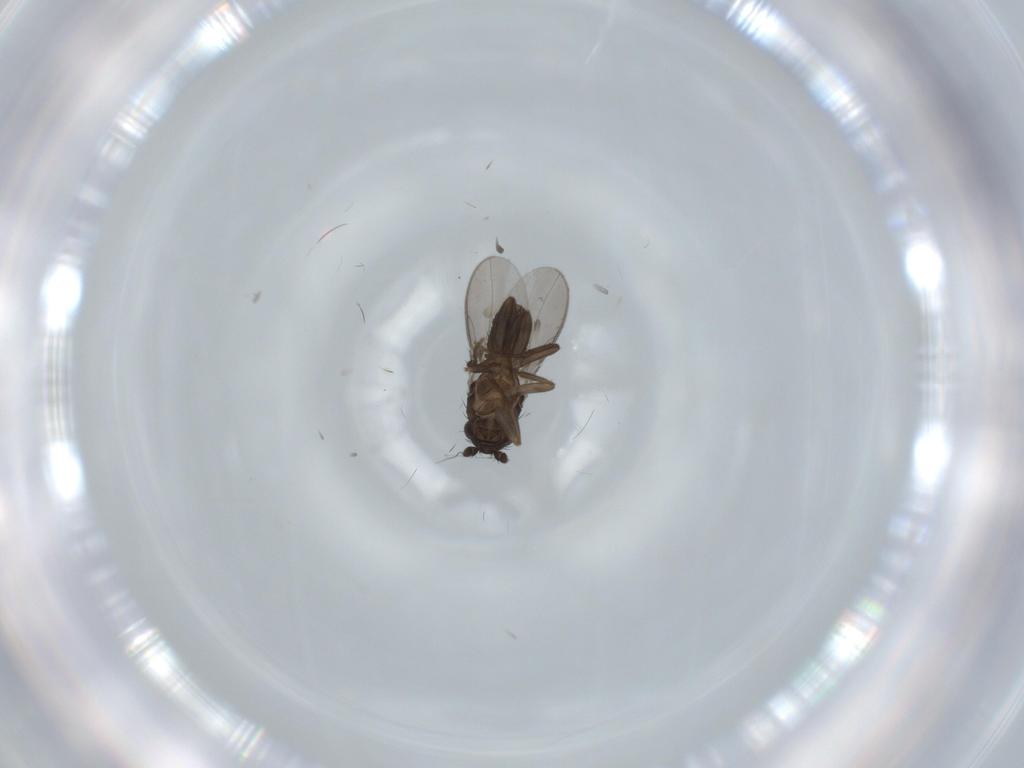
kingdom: Animalia
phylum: Arthropoda
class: Insecta
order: Diptera
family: Sphaeroceridae
